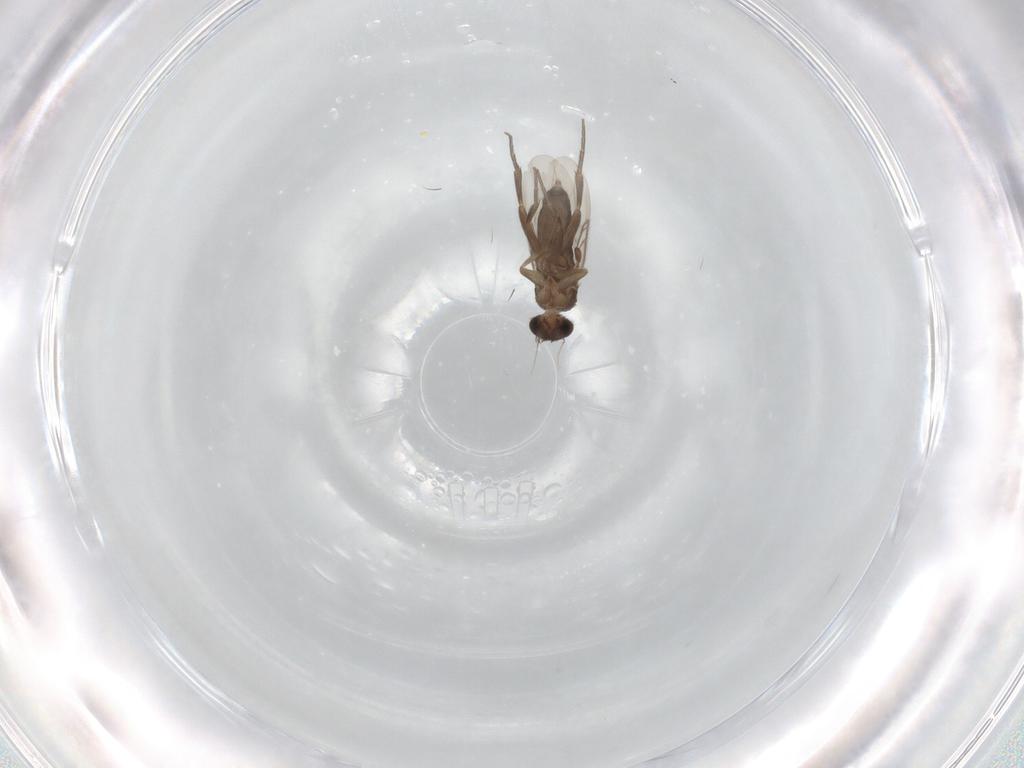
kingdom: Animalia
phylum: Arthropoda
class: Insecta
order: Diptera
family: Phoridae
